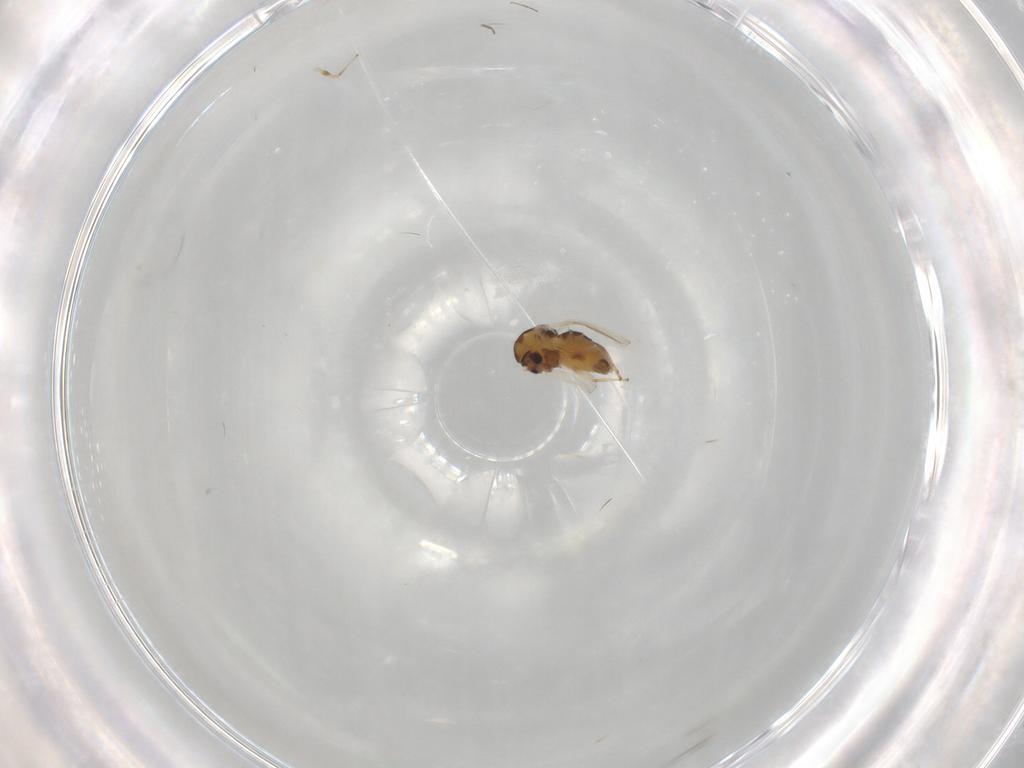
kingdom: Animalia
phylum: Arthropoda
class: Insecta
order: Diptera
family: Chironomidae
